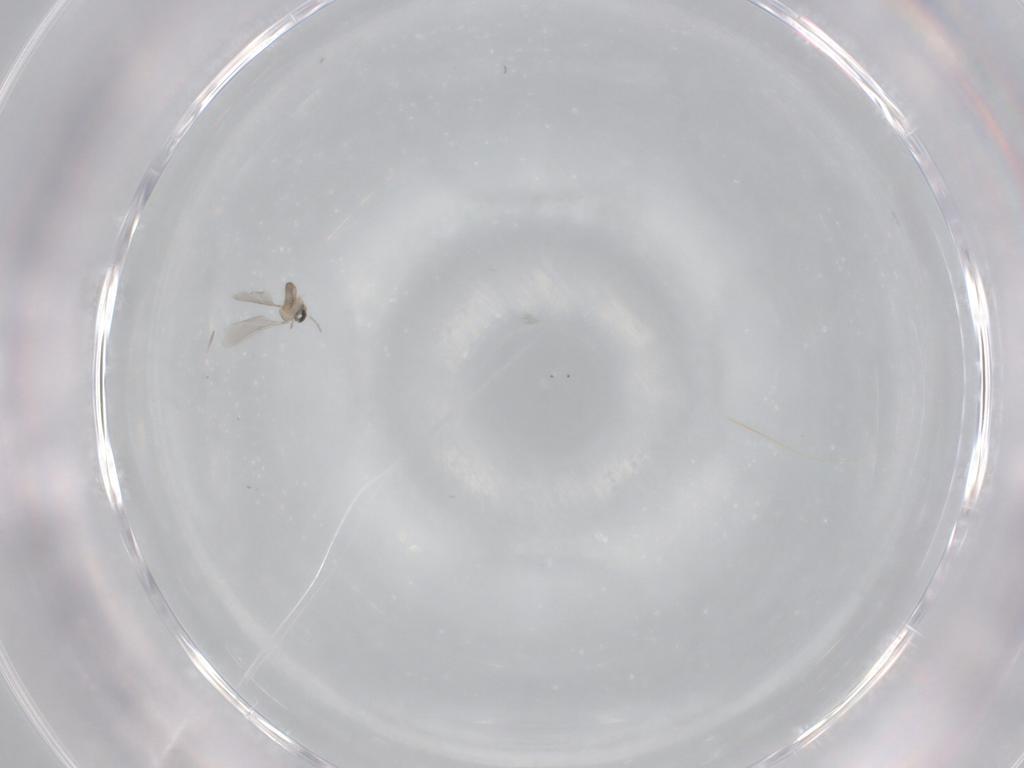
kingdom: Animalia
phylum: Arthropoda
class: Insecta
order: Diptera
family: Cecidomyiidae
